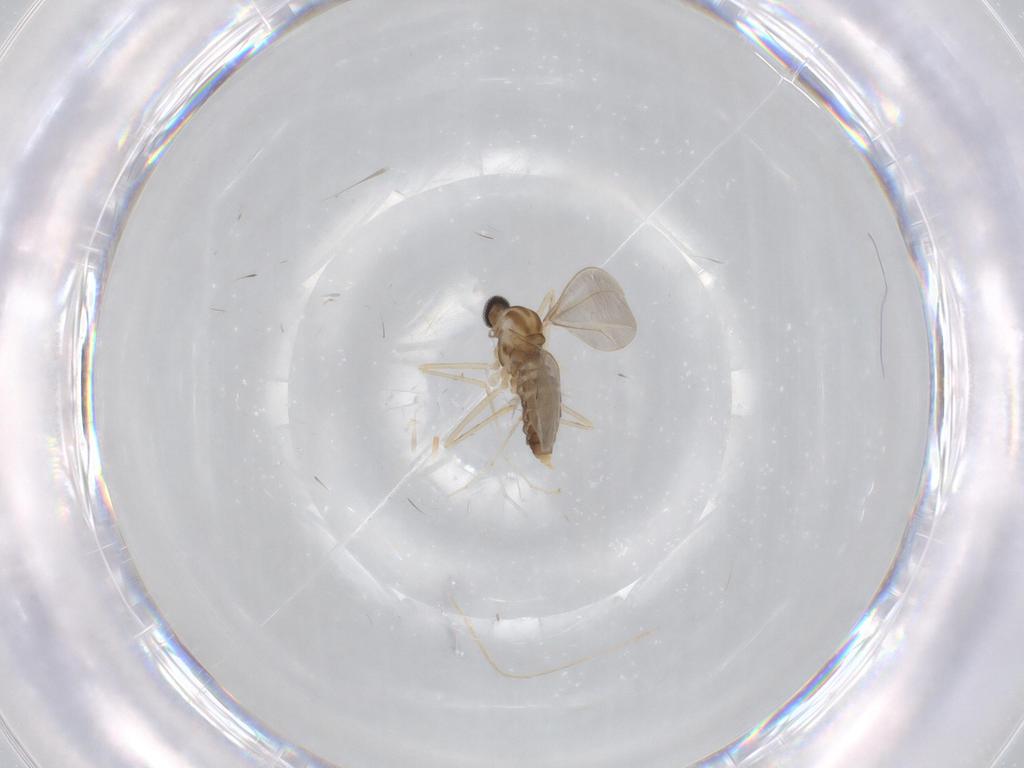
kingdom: Animalia
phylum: Arthropoda
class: Insecta
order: Diptera
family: Cecidomyiidae
